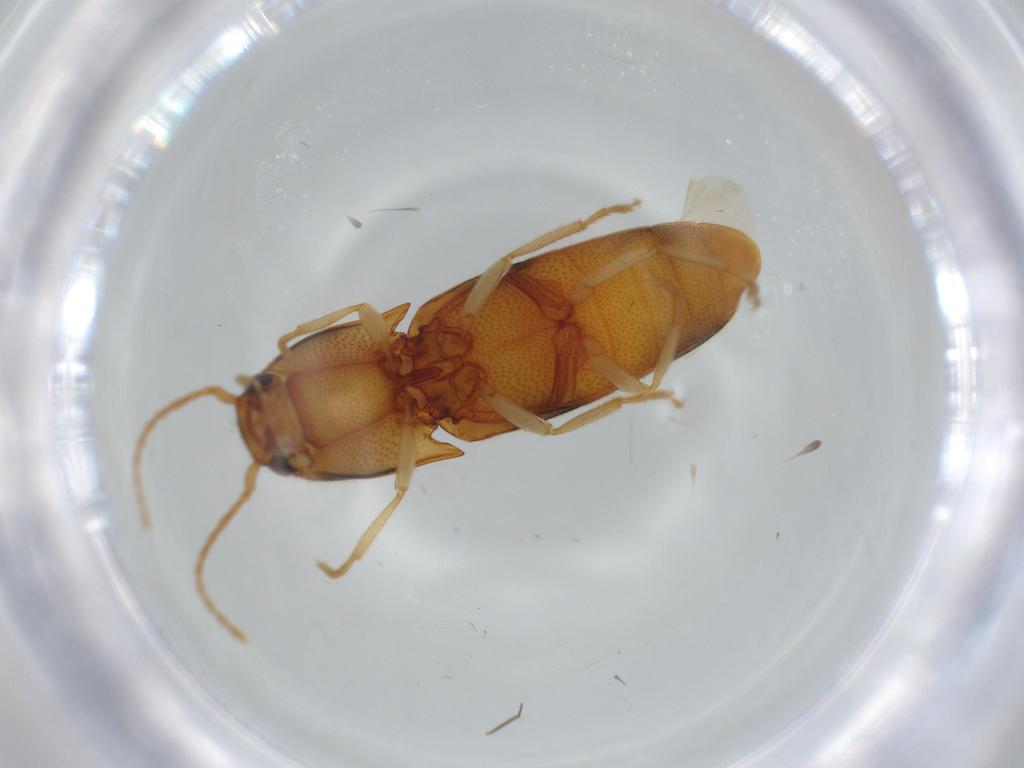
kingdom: Animalia
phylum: Arthropoda
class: Insecta
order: Coleoptera
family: Elateridae
